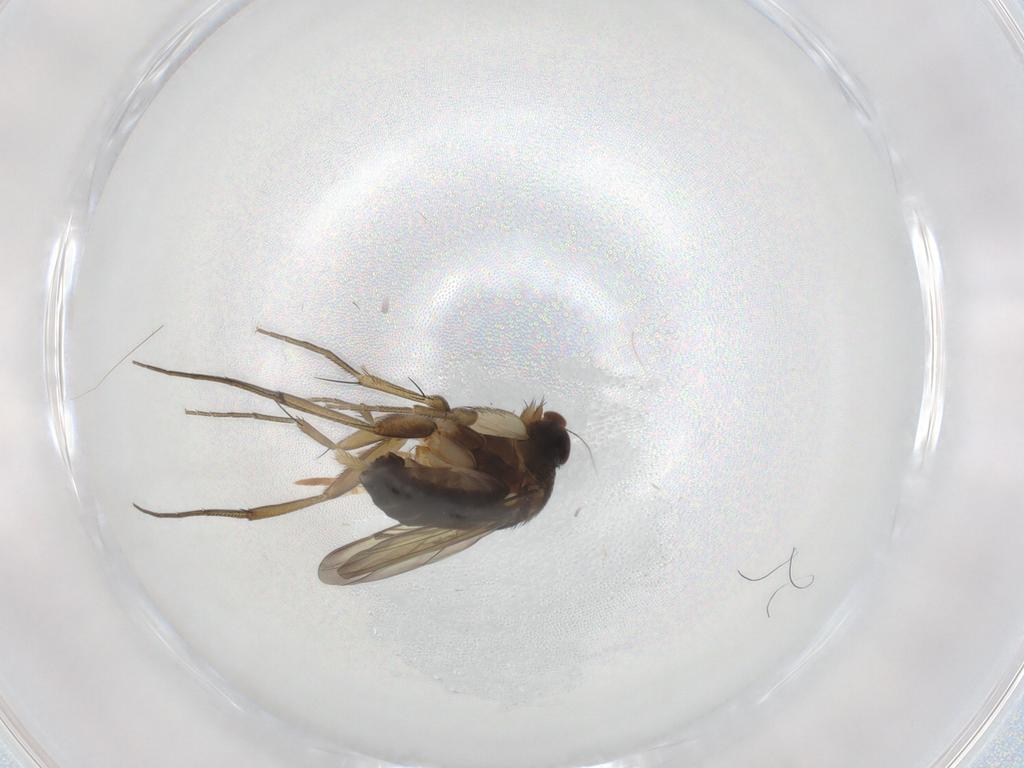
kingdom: Animalia
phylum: Arthropoda
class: Insecta
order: Diptera
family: Phoridae
